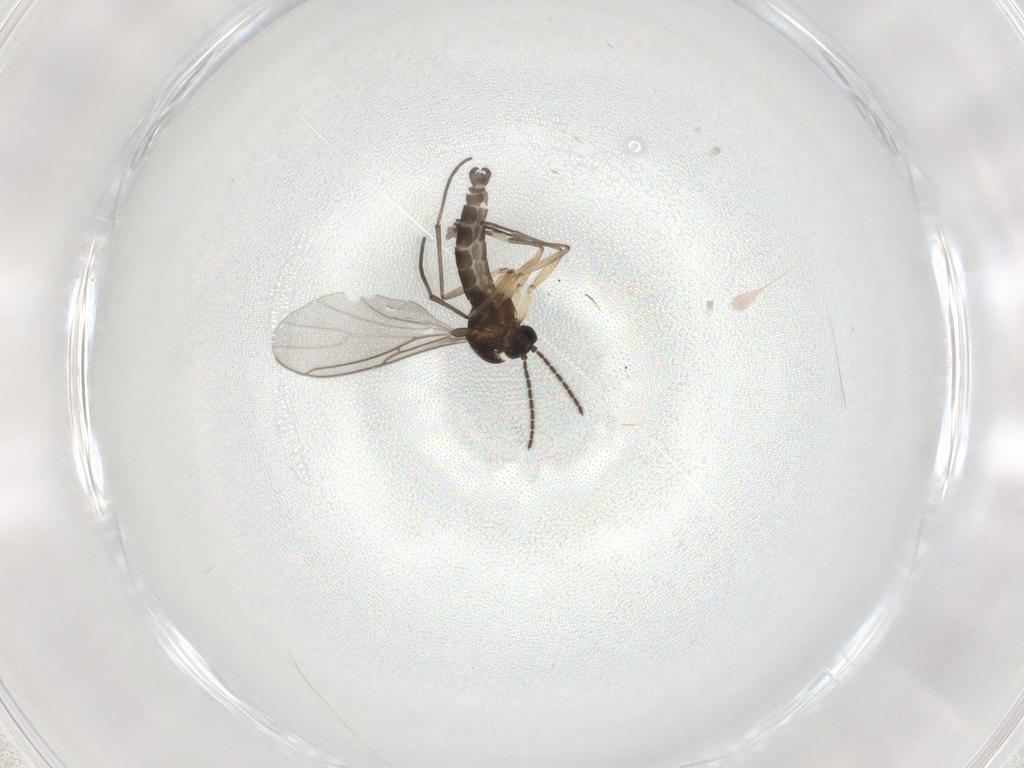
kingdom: Animalia
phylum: Arthropoda
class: Insecta
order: Diptera
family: Sciaridae
